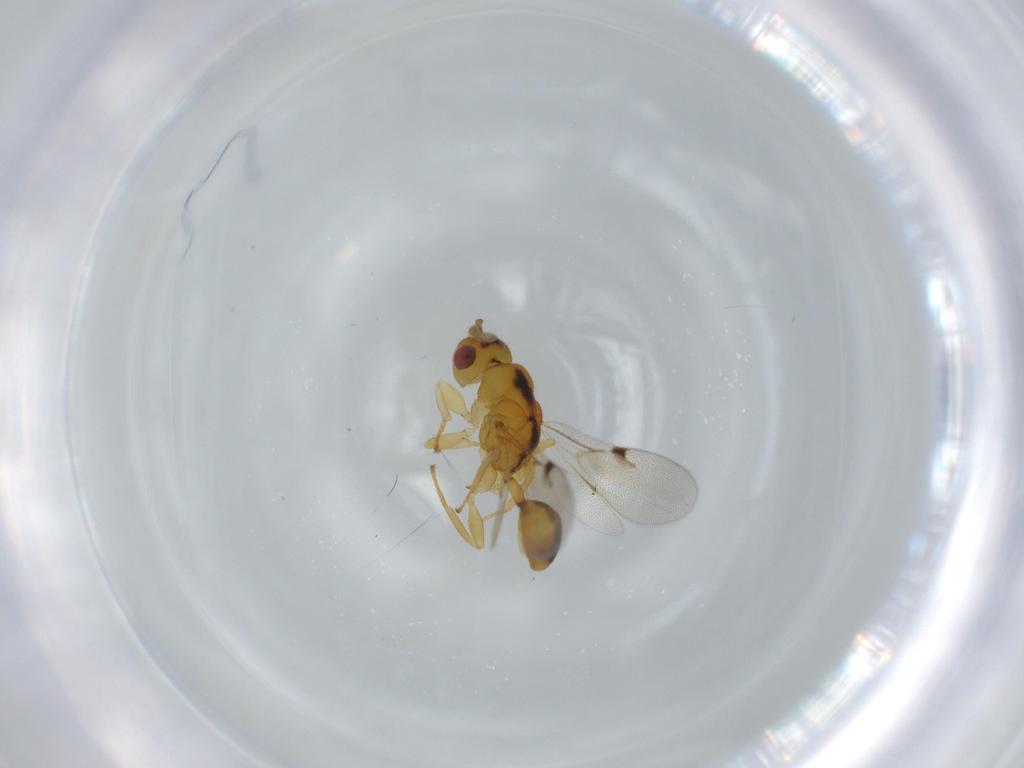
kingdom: Animalia
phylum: Arthropoda
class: Insecta
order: Hymenoptera
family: Eurytomidae
